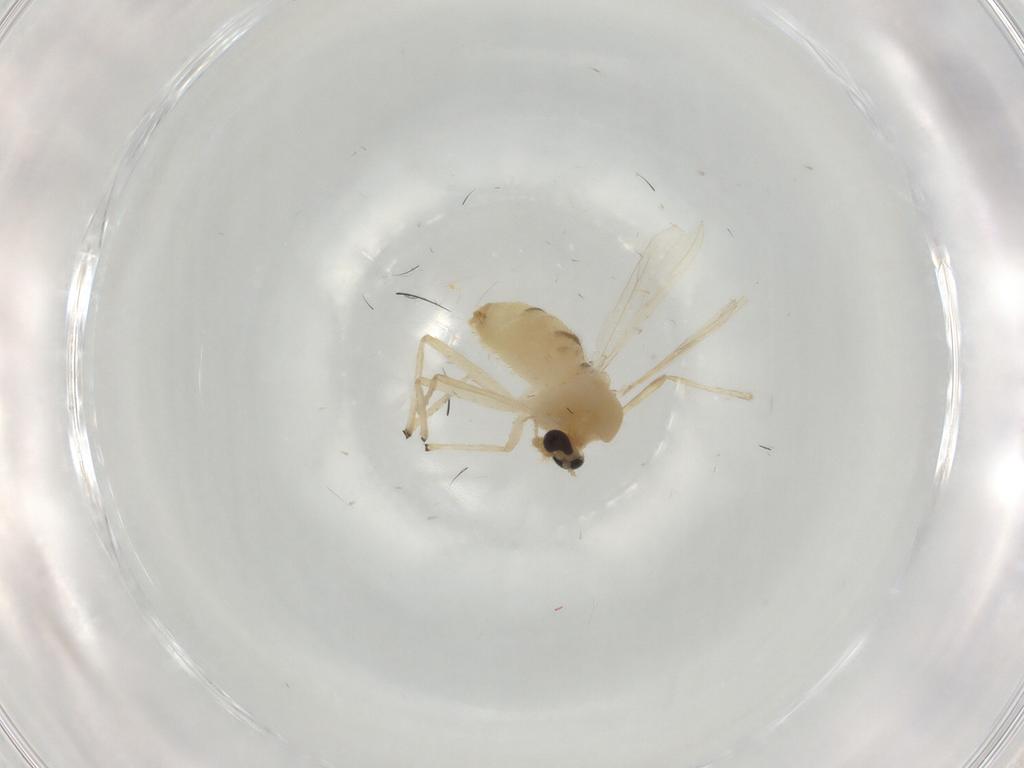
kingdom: Animalia
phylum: Arthropoda
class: Insecta
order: Diptera
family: Chironomidae
